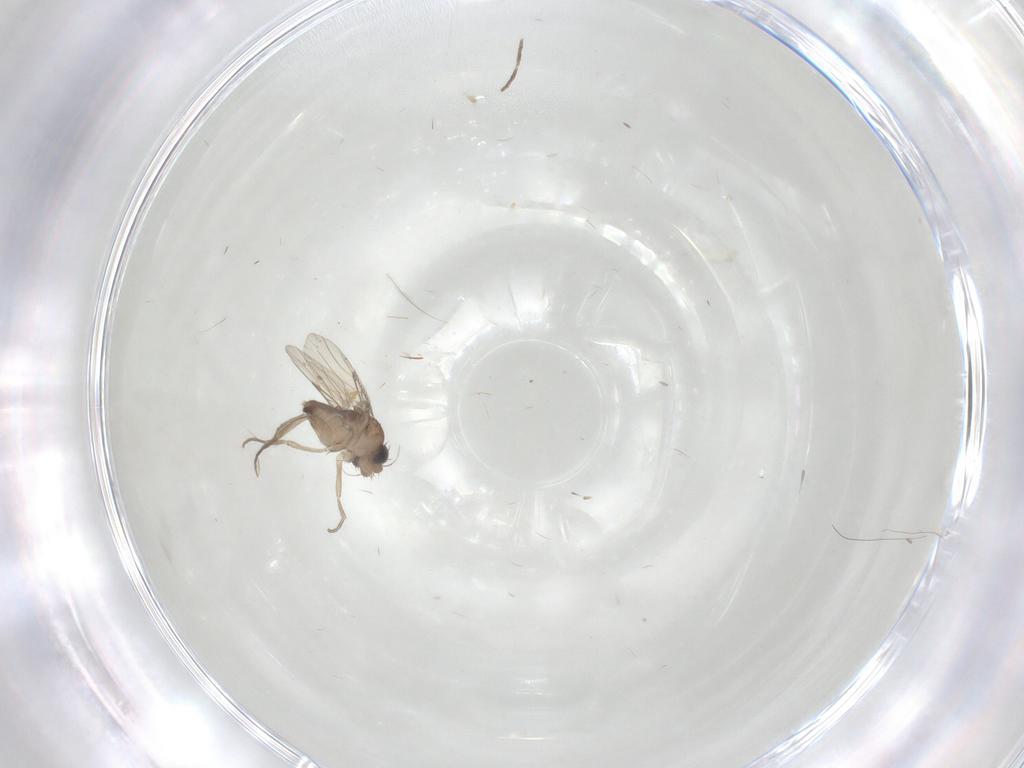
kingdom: Animalia
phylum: Arthropoda
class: Insecta
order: Diptera
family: Phoridae
